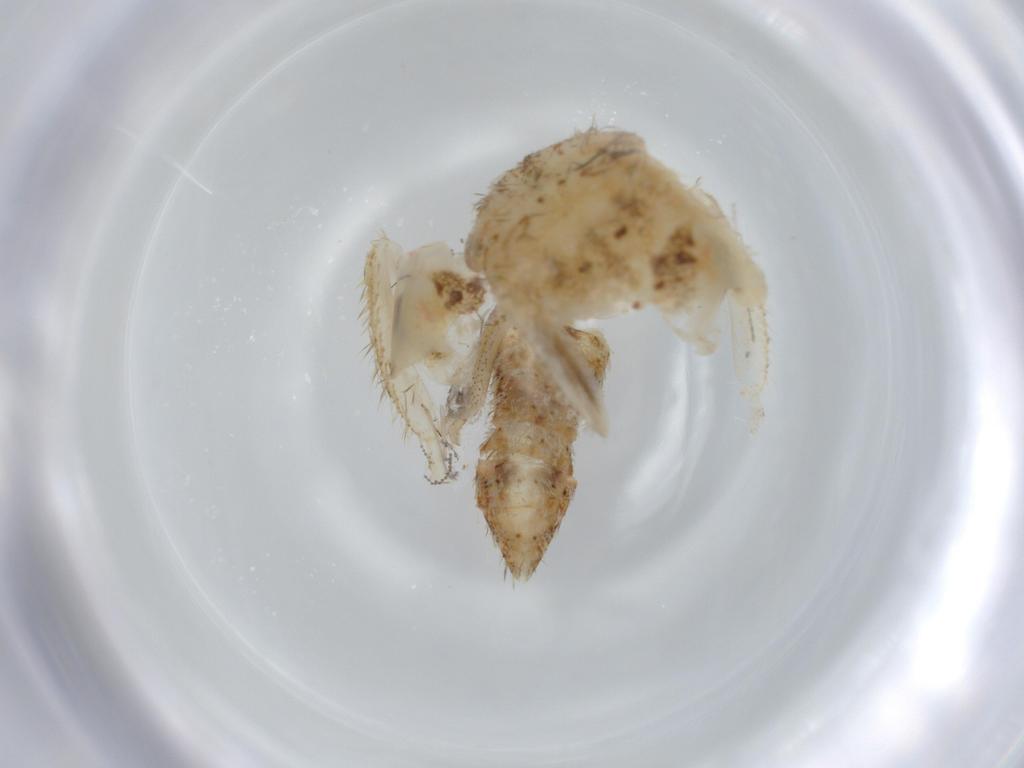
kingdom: Animalia
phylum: Arthropoda
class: Insecta
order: Hemiptera
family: Cicadellidae
